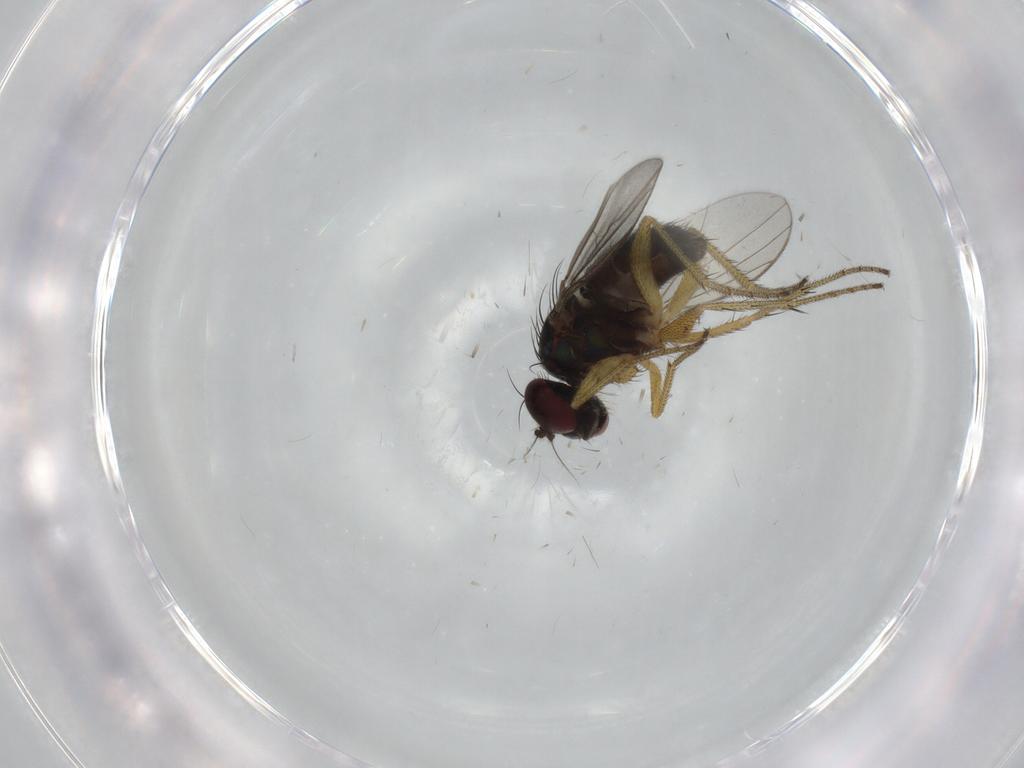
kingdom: Animalia
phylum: Arthropoda
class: Insecta
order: Diptera
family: Dolichopodidae
